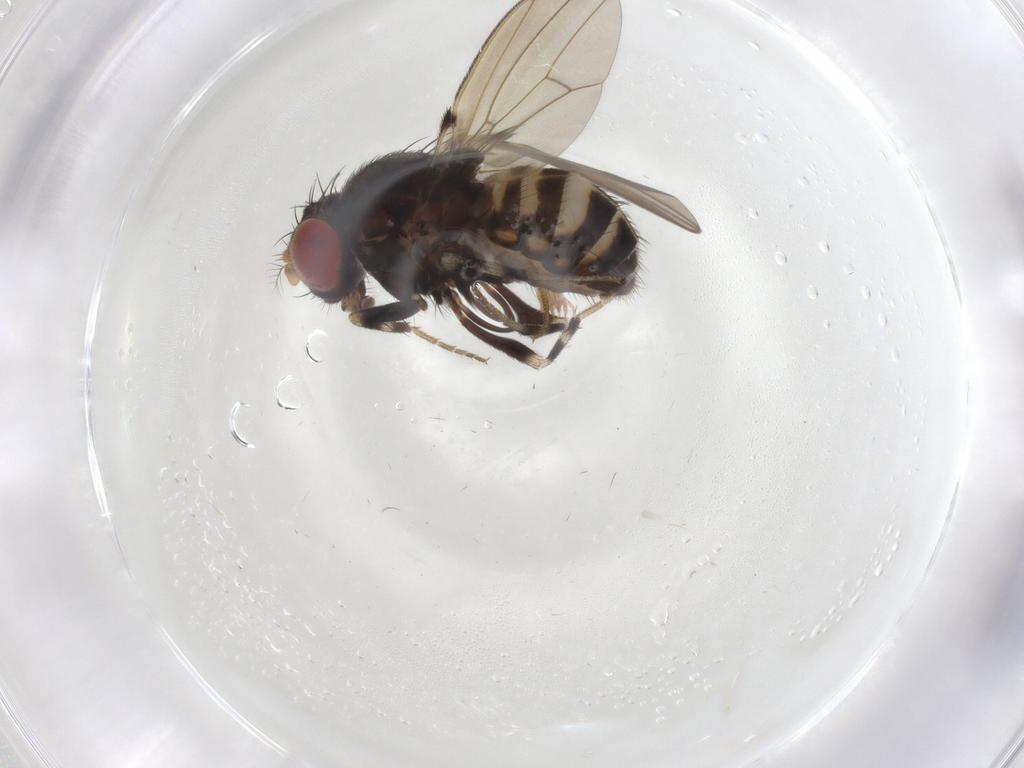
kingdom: Animalia
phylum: Arthropoda
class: Insecta
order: Diptera
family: Drosophilidae
